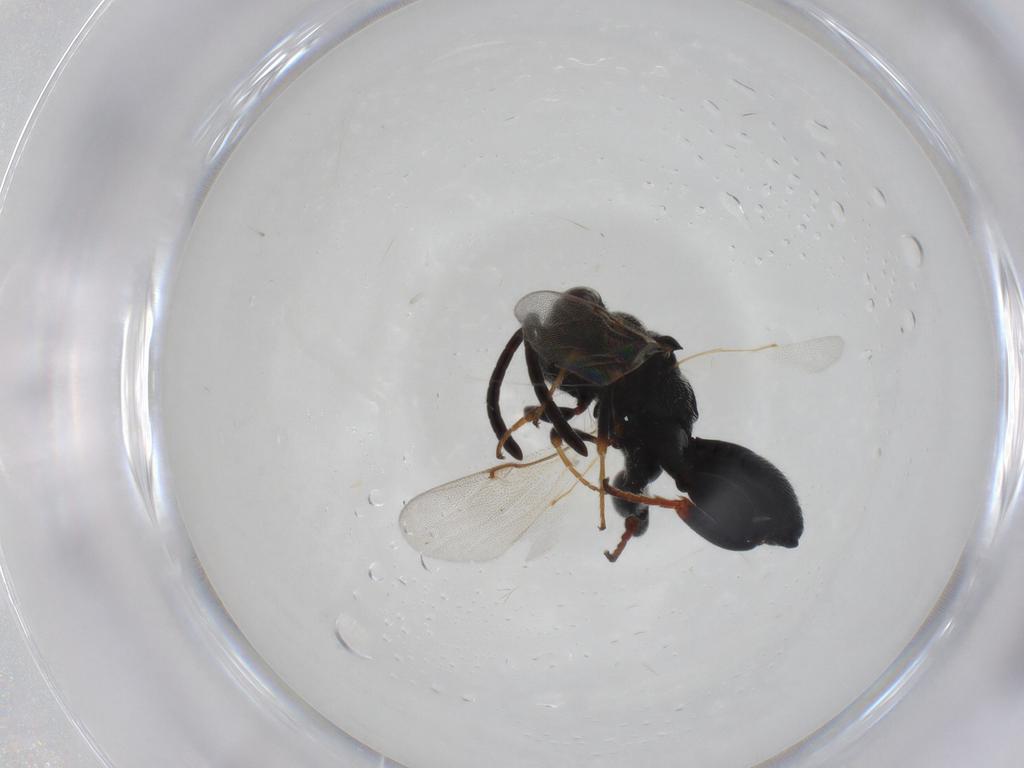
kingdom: Animalia
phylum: Arthropoda
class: Insecta
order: Hymenoptera
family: Chalcididae
